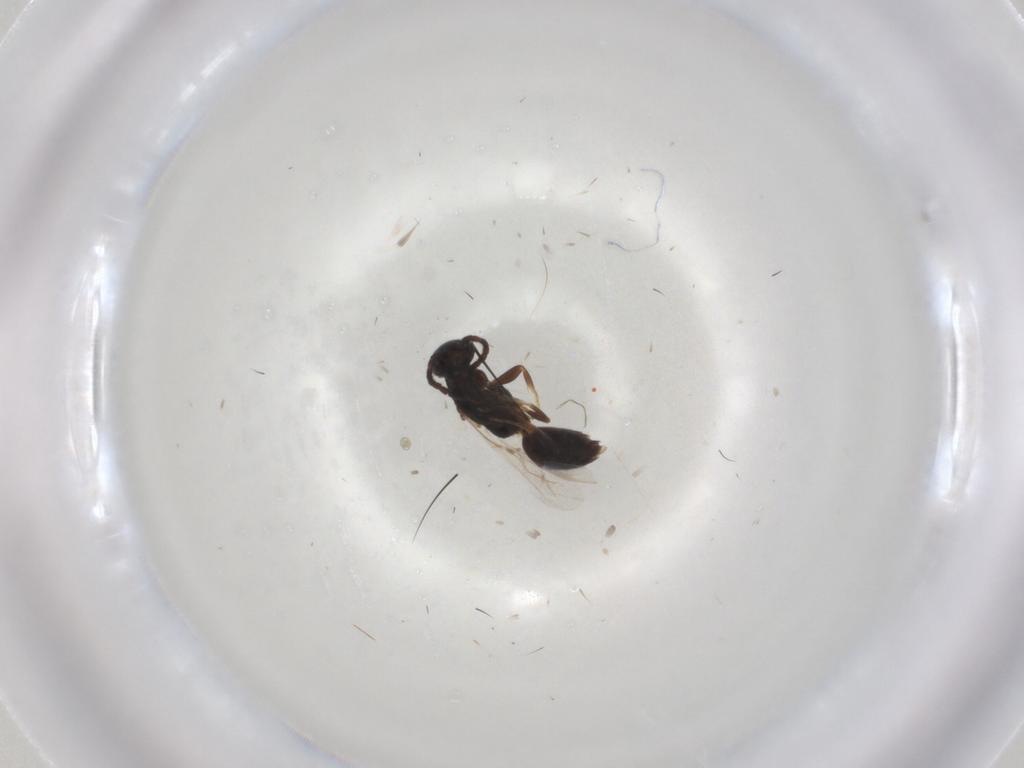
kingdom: Animalia
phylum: Arthropoda
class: Insecta
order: Hymenoptera
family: Bethylidae
